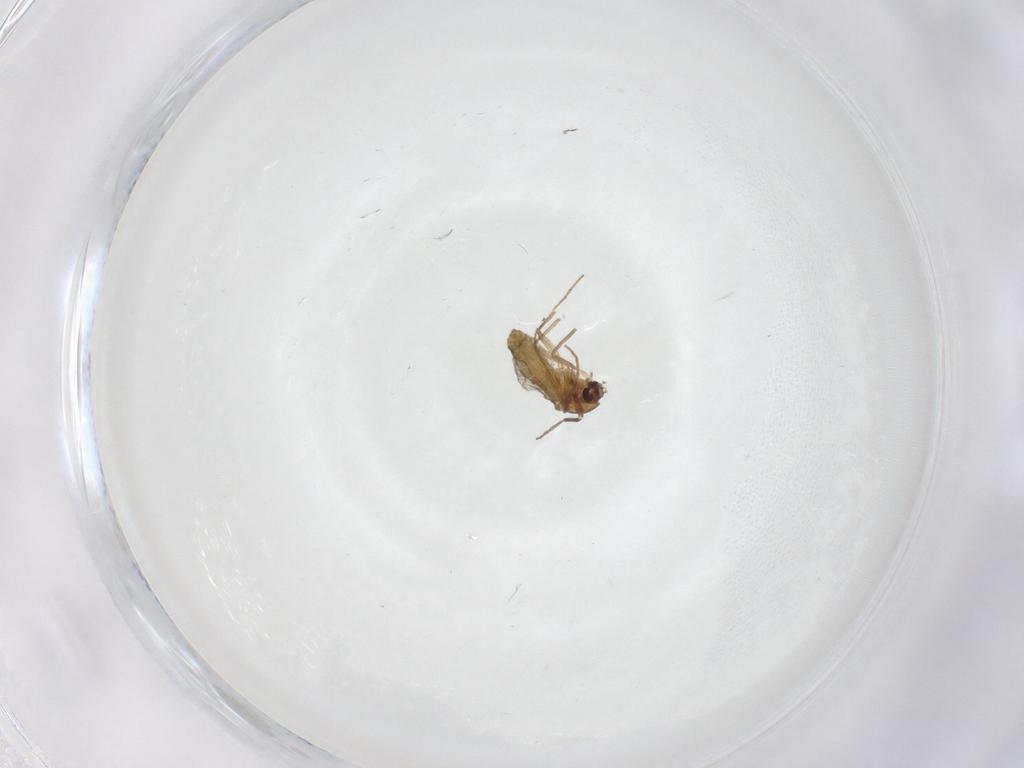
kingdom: Animalia
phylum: Arthropoda
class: Insecta
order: Diptera
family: Chironomidae
